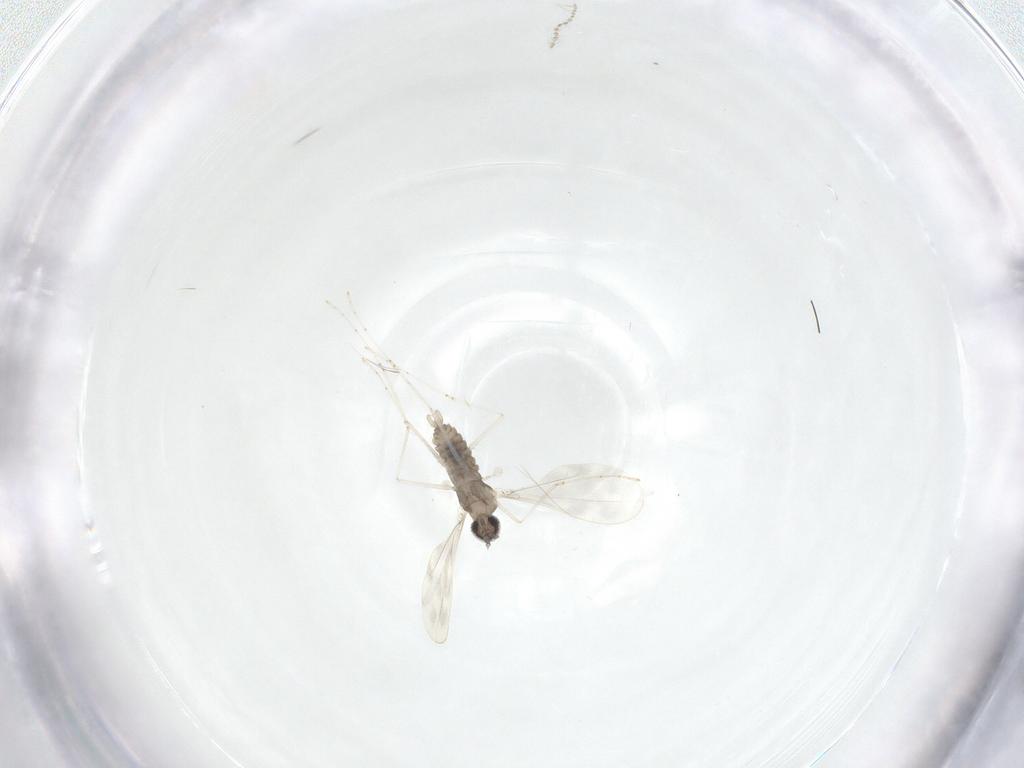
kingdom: Animalia
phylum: Arthropoda
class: Insecta
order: Diptera
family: Cecidomyiidae
